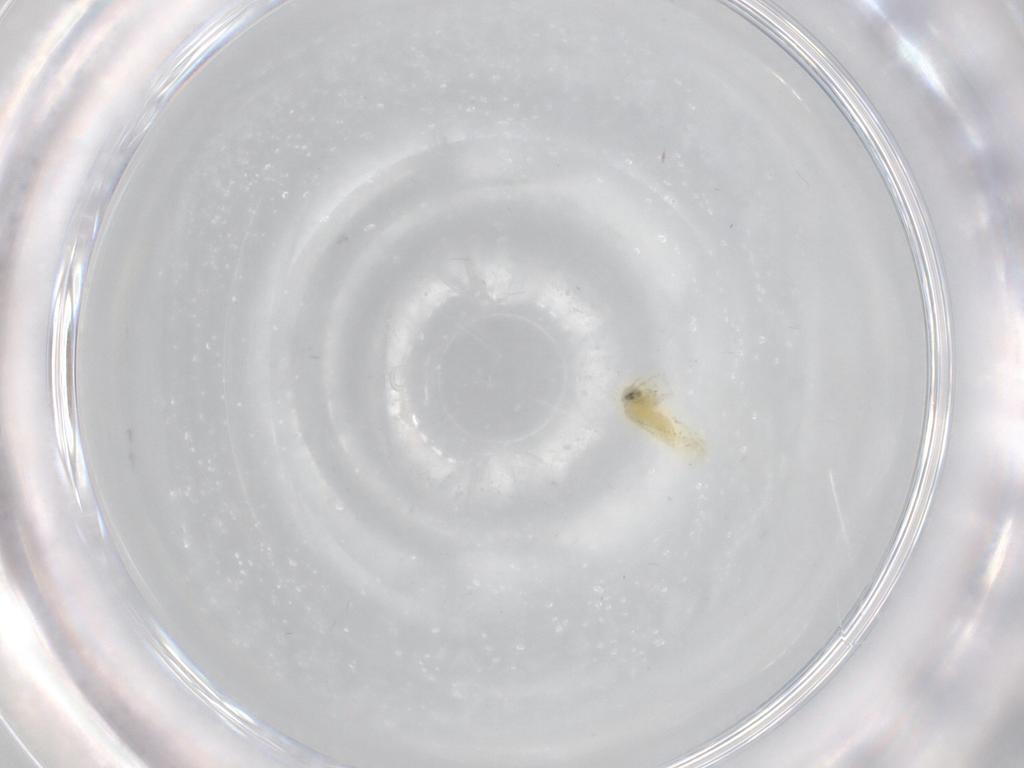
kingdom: Animalia
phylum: Arthropoda
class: Insecta
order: Hemiptera
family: Aleyrodidae
